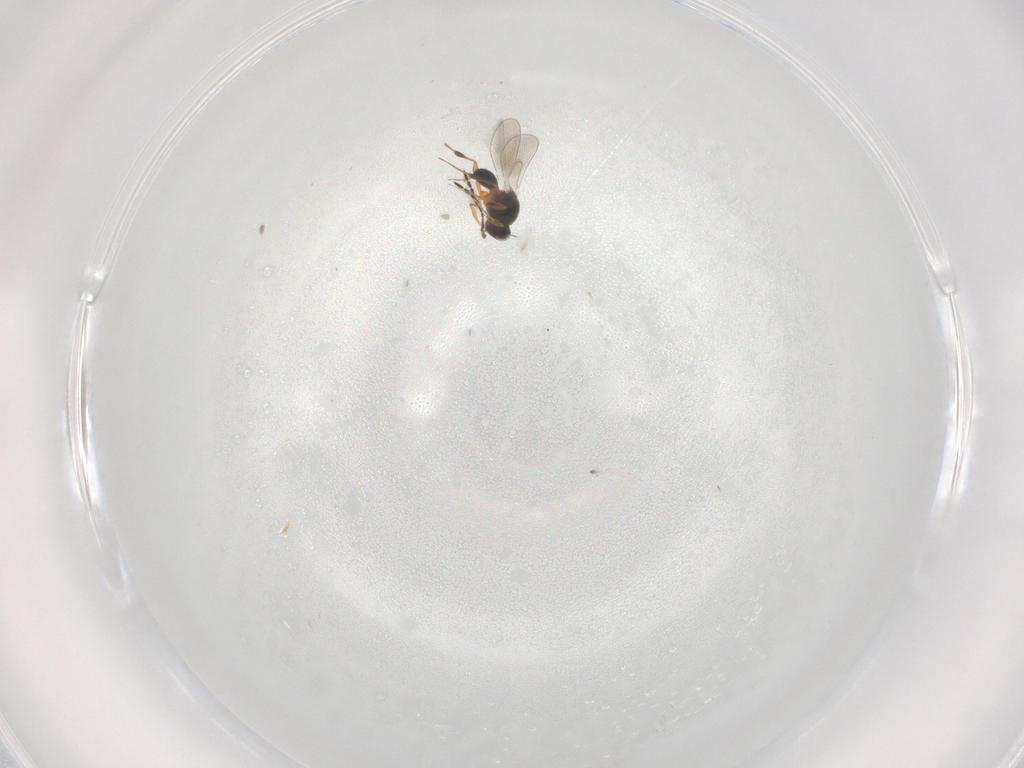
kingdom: Animalia
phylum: Arthropoda
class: Insecta
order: Hymenoptera
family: Platygastridae
